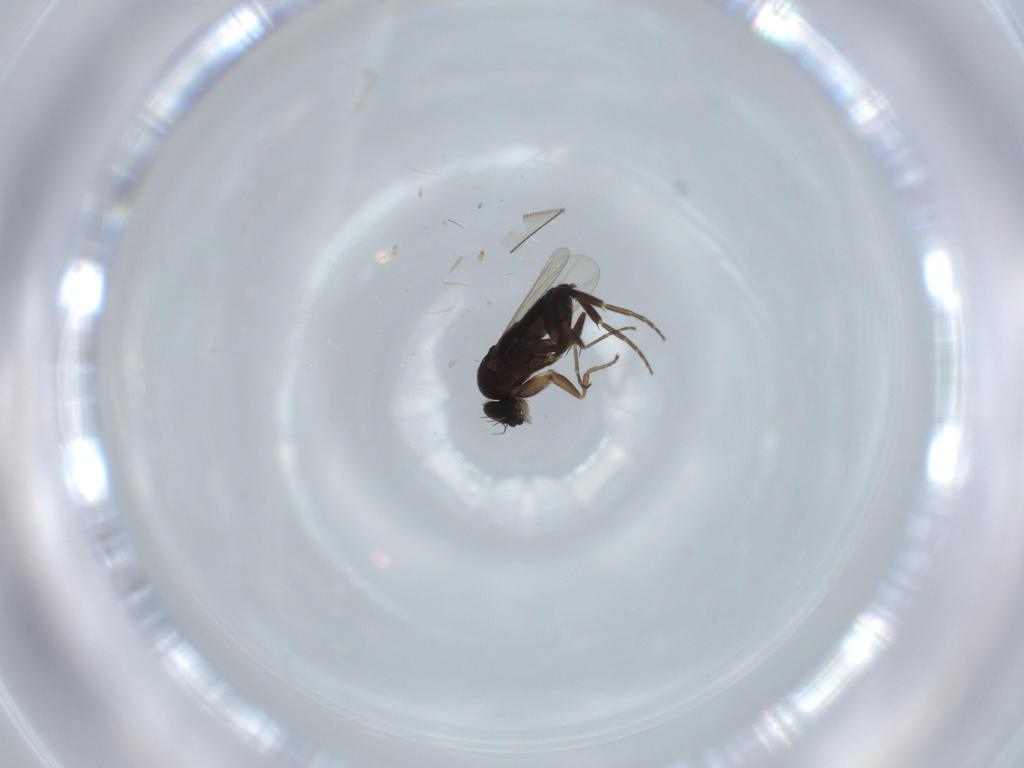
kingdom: Animalia
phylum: Arthropoda
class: Insecta
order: Diptera
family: Phoridae
